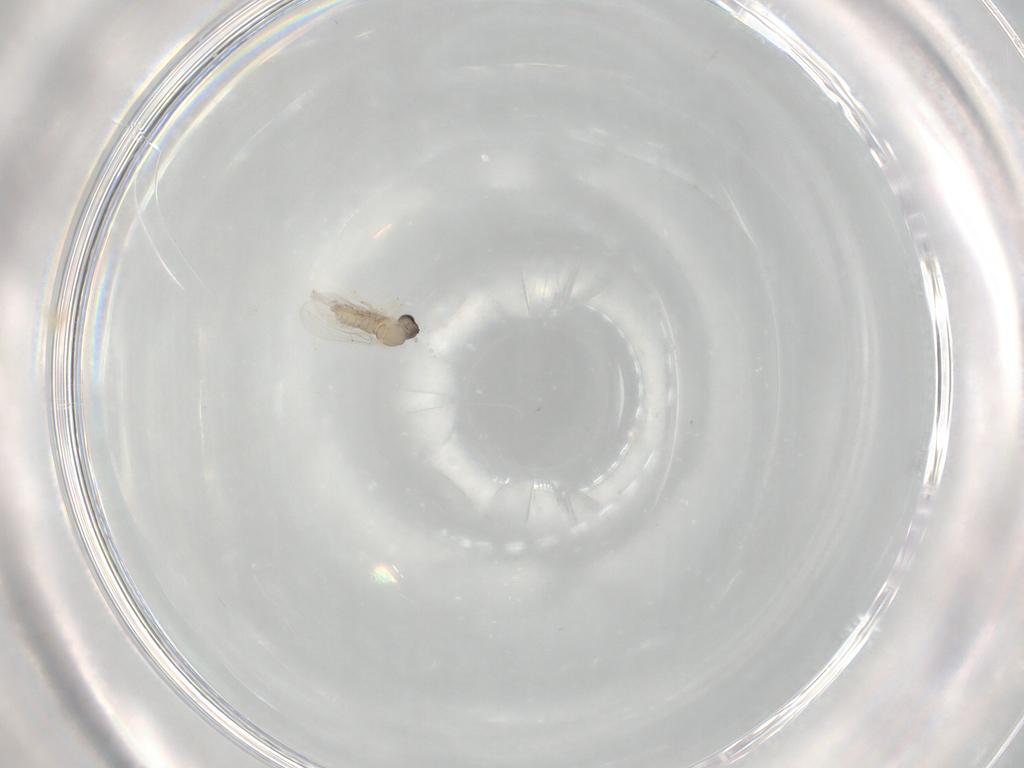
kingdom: Animalia
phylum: Arthropoda
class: Insecta
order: Diptera
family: Cecidomyiidae
